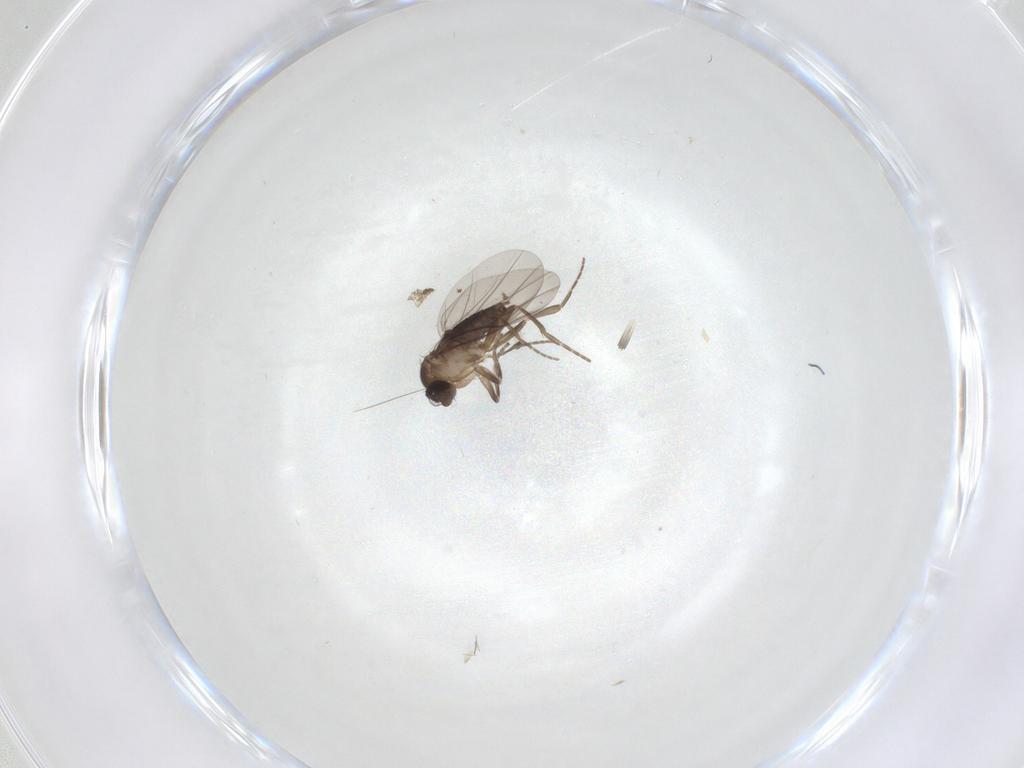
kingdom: Animalia
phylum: Arthropoda
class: Insecta
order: Diptera
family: Phoridae
